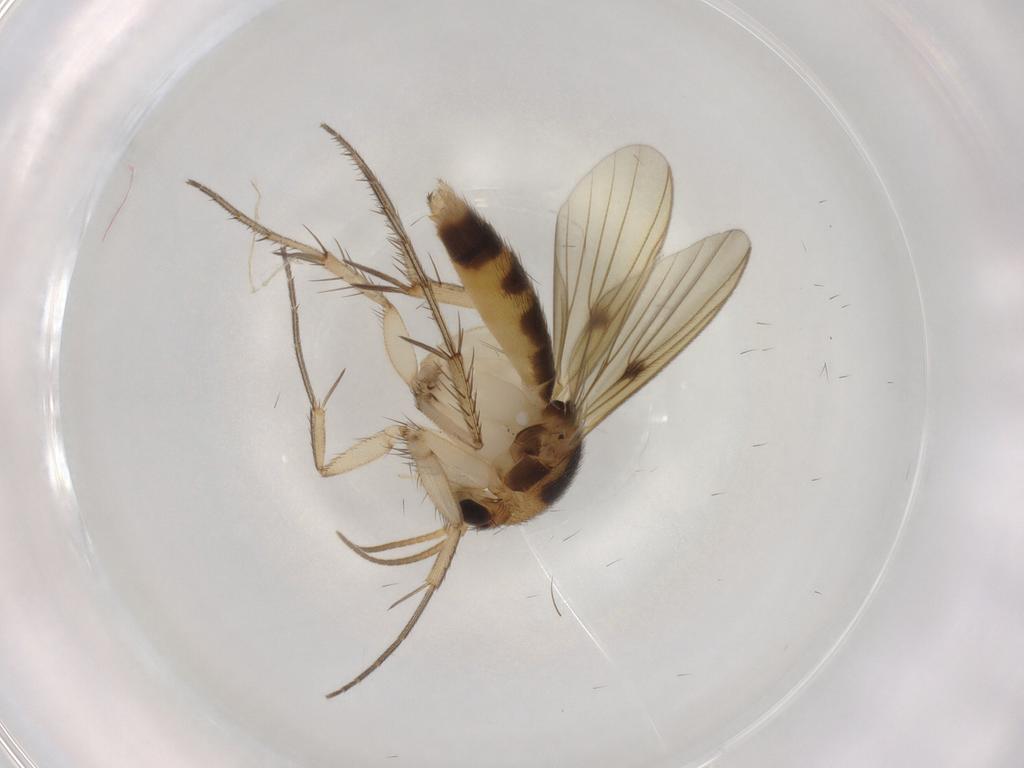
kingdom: Animalia
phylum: Arthropoda
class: Insecta
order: Diptera
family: Mycetophilidae
